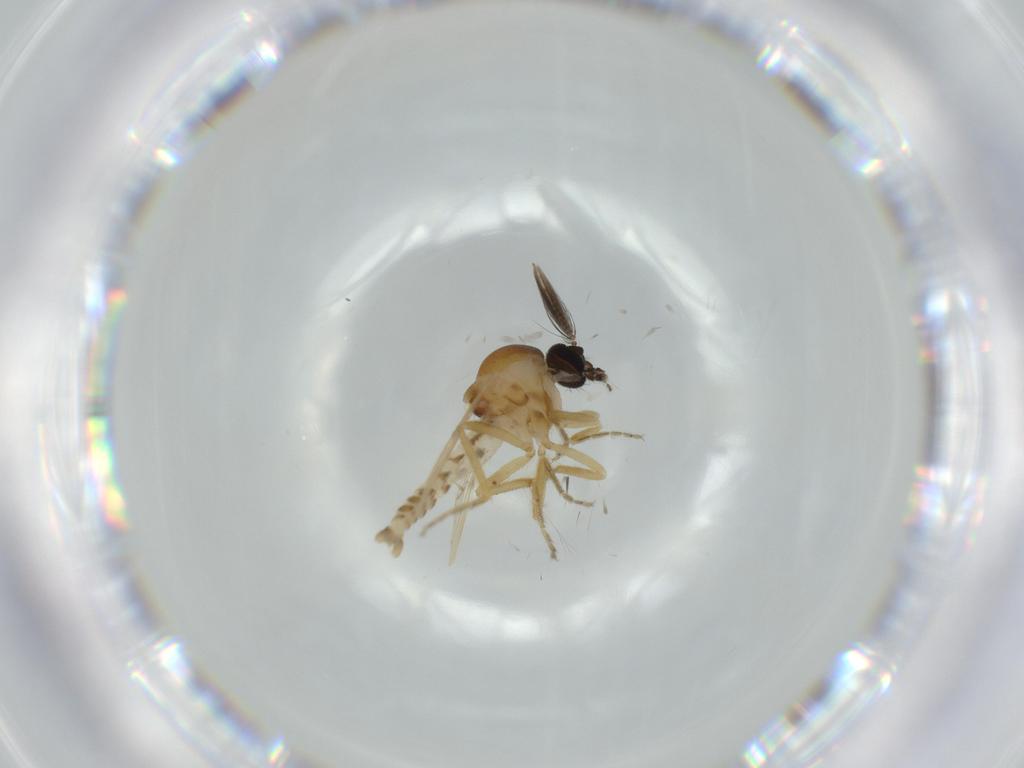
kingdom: Animalia
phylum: Arthropoda
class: Insecta
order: Diptera
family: Ceratopogonidae
